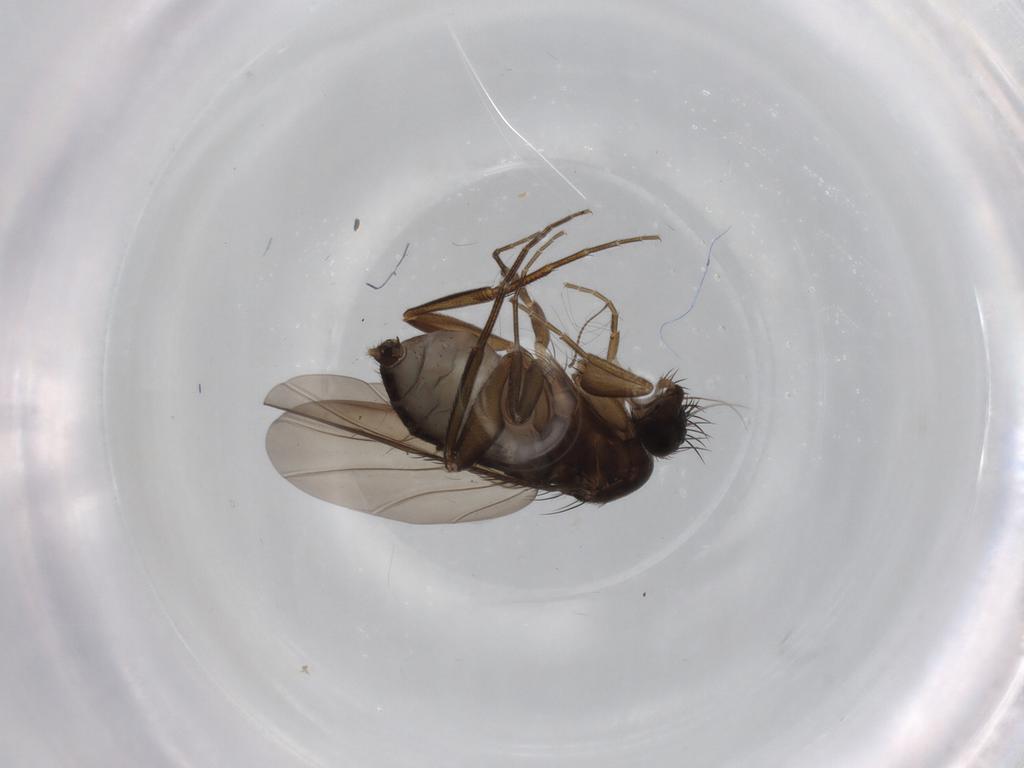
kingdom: Animalia
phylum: Arthropoda
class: Insecta
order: Diptera
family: Phoridae
